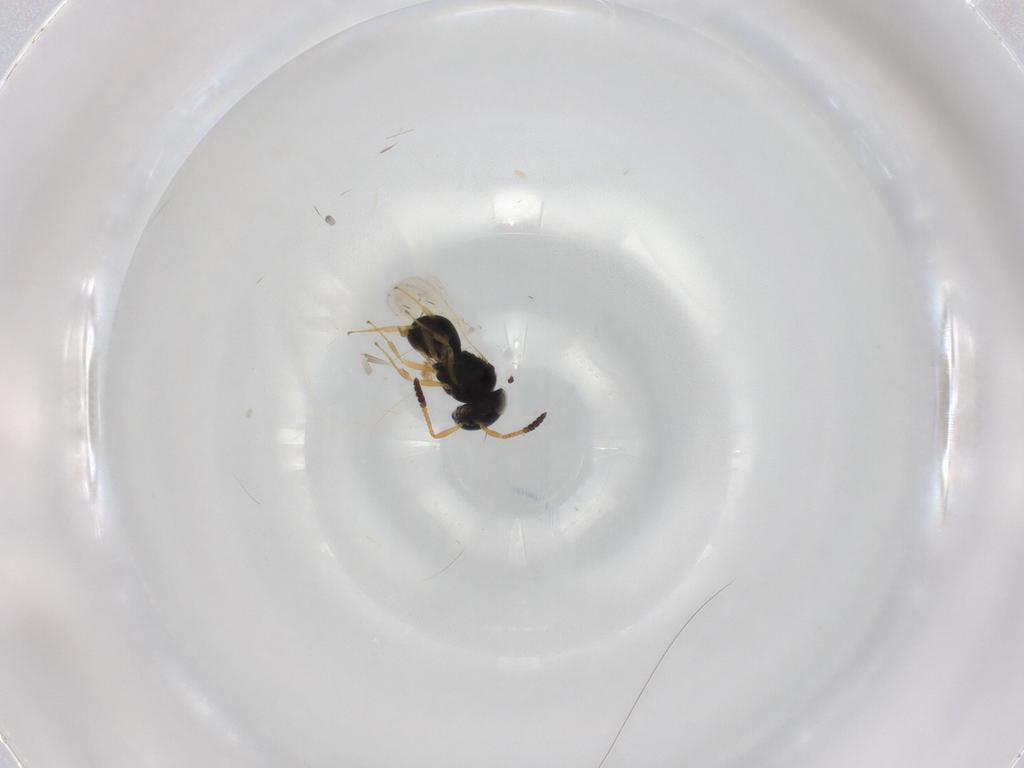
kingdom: Animalia
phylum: Arthropoda
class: Insecta
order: Hymenoptera
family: Scelionidae
